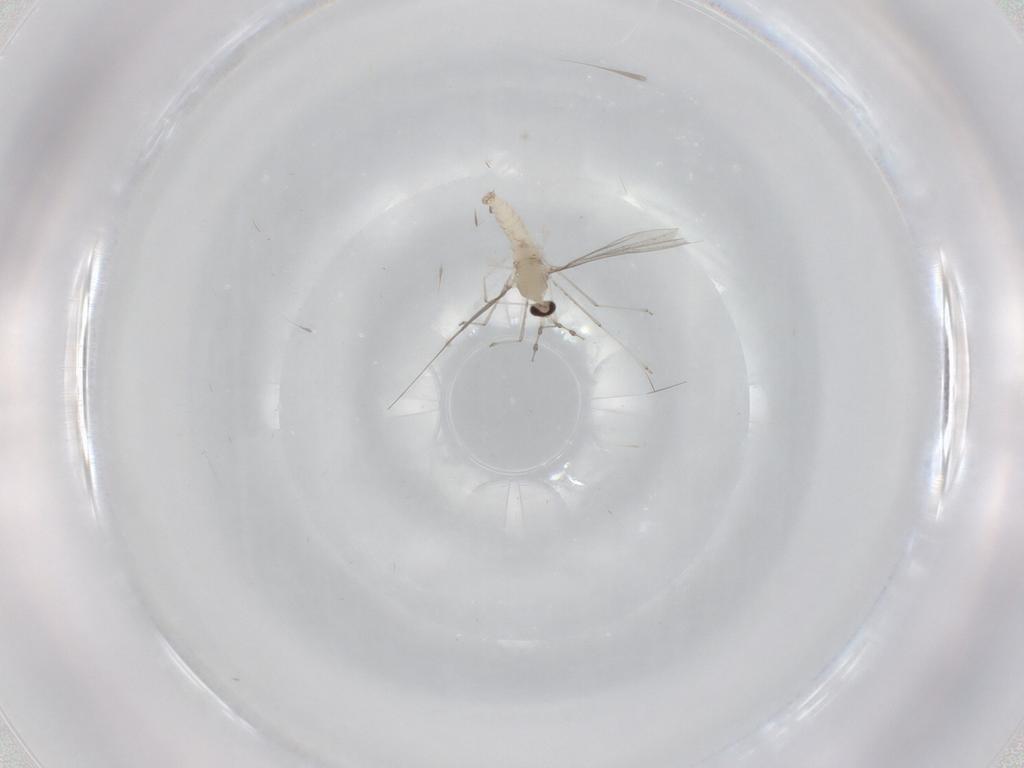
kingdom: Animalia
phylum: Arthropoda
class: Insecta
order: Diptera
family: Cecidomyiidae
